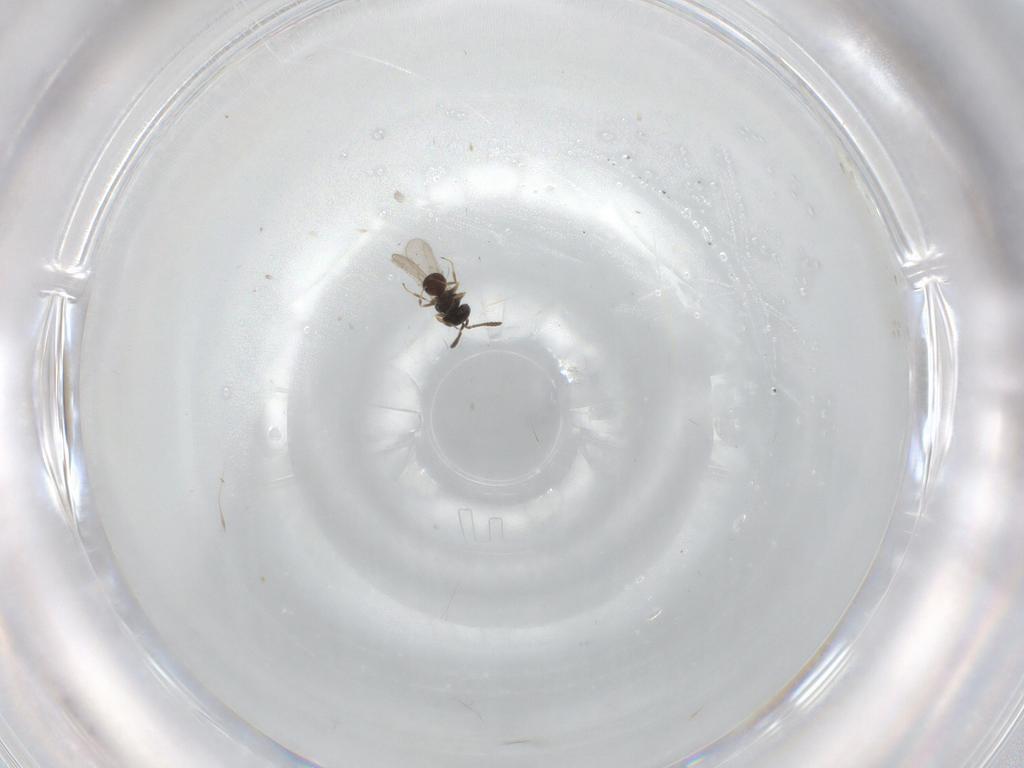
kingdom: Animalia
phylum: Arthropoda
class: Insecta
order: Hymenoptera
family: Scelionidae
